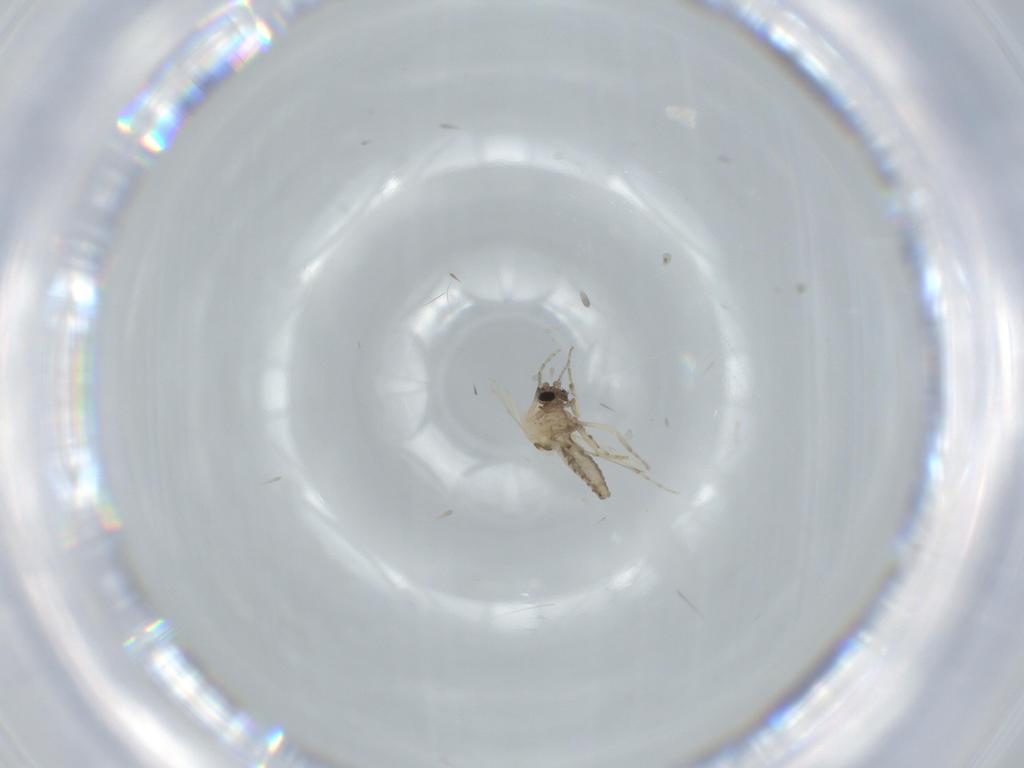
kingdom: Animalia
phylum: Arthropoda
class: Insecta
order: Diptera
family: Ceratopogonidae
